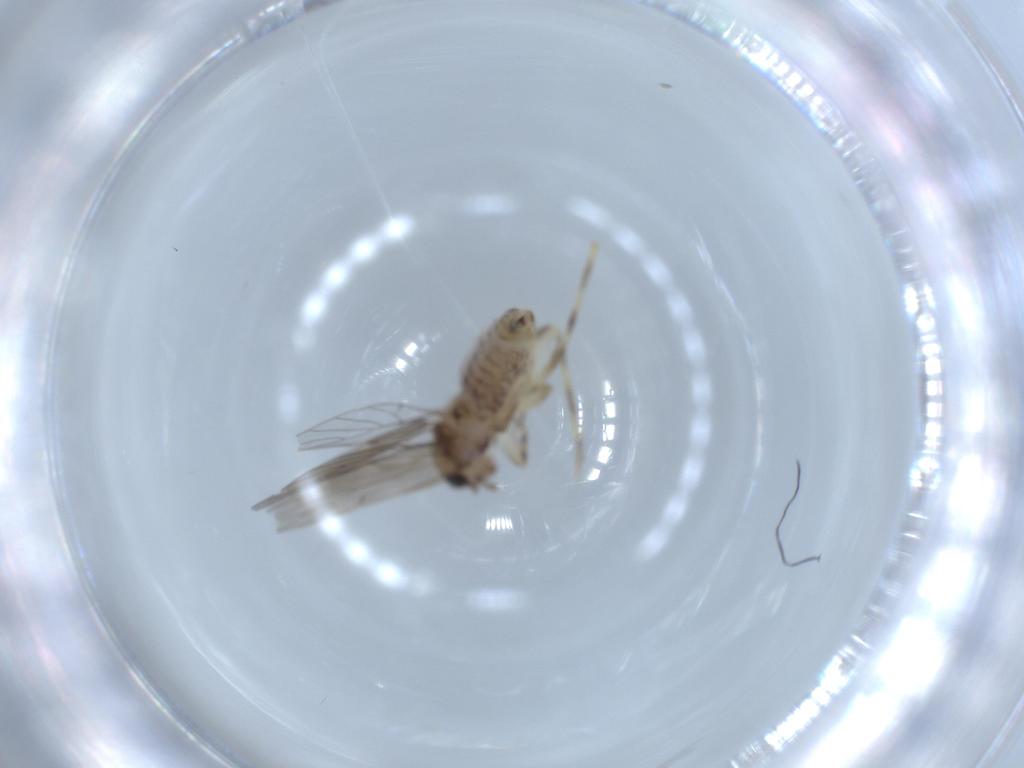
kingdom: Animalia
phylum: Arthropoda
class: Insecta
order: Psocodea
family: Lepidopsocidae
